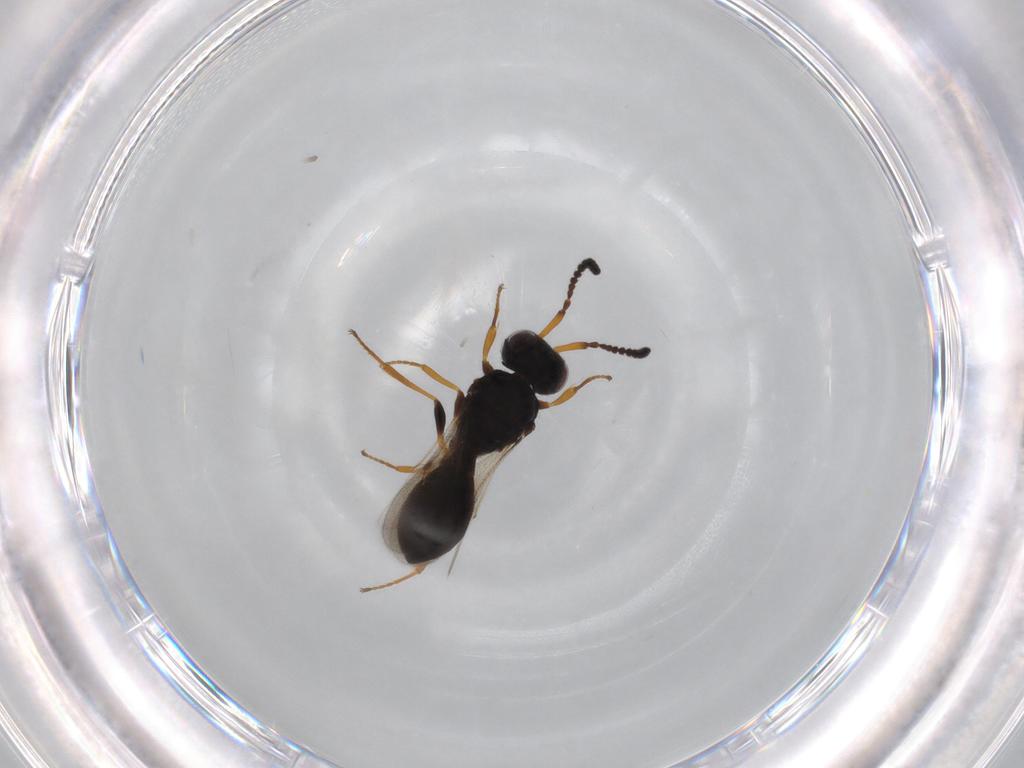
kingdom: Animalia
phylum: Arthropoda
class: Insecta
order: Hymenoptera
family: Scelionidae
